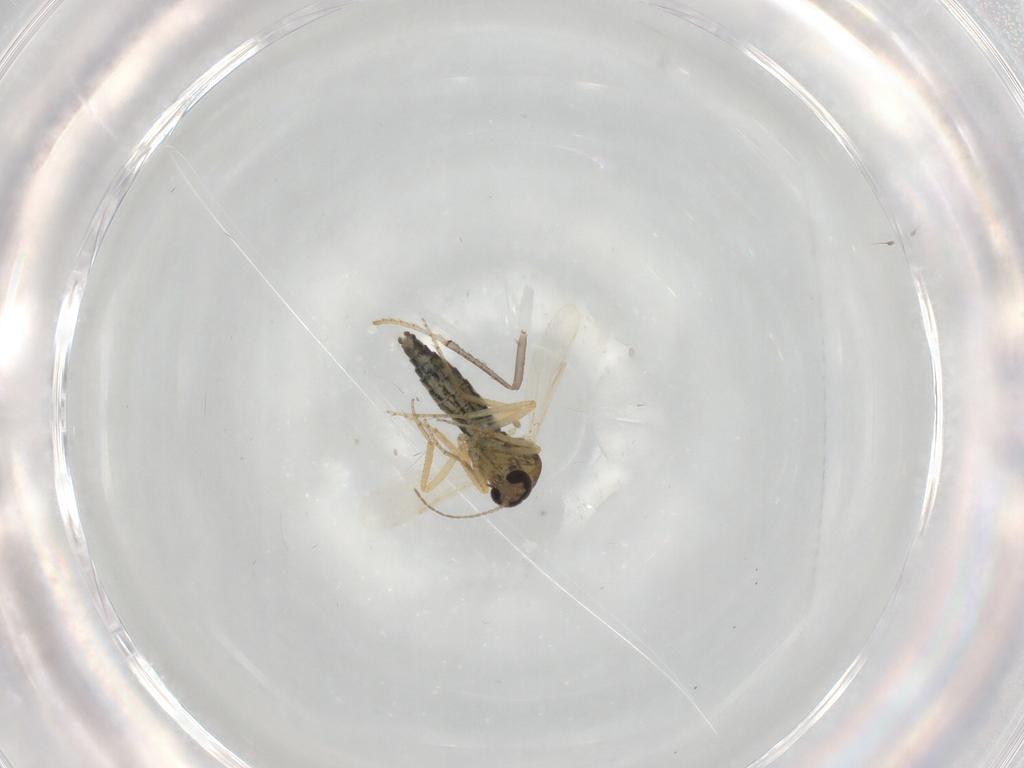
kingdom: Animalia
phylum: Arthropoda
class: Insecta
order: Diptera
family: Ceratopogonidae
